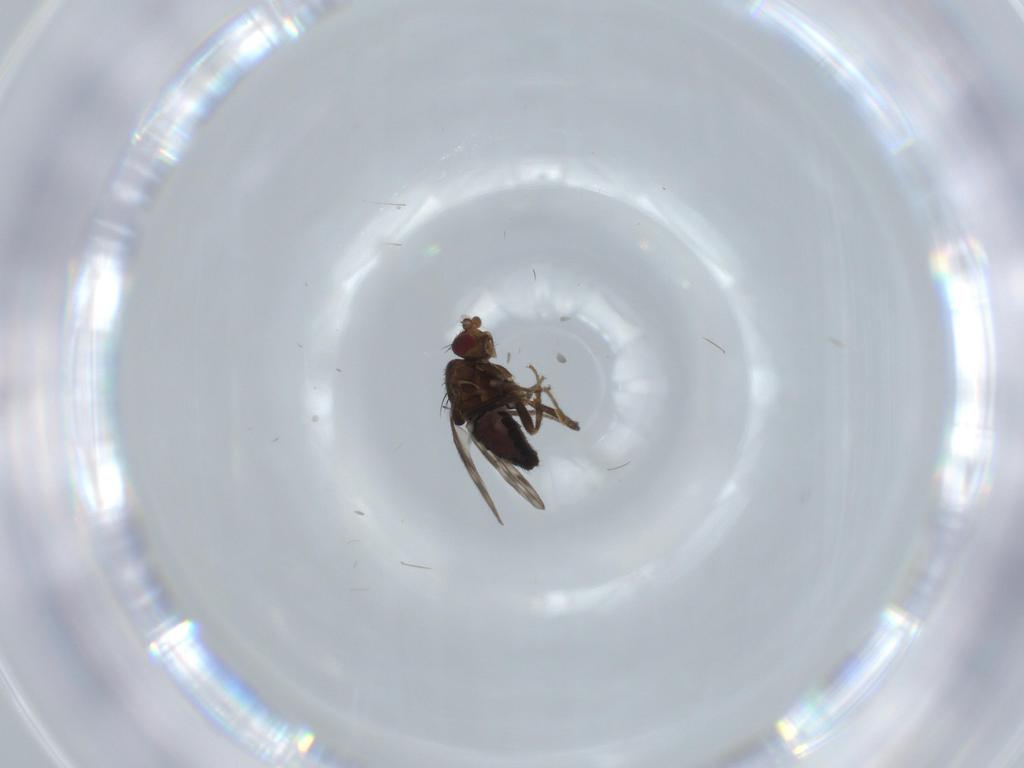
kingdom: Animalia
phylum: Arthropoda
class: Insecta
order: Diptera
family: Sphaeroceridae
